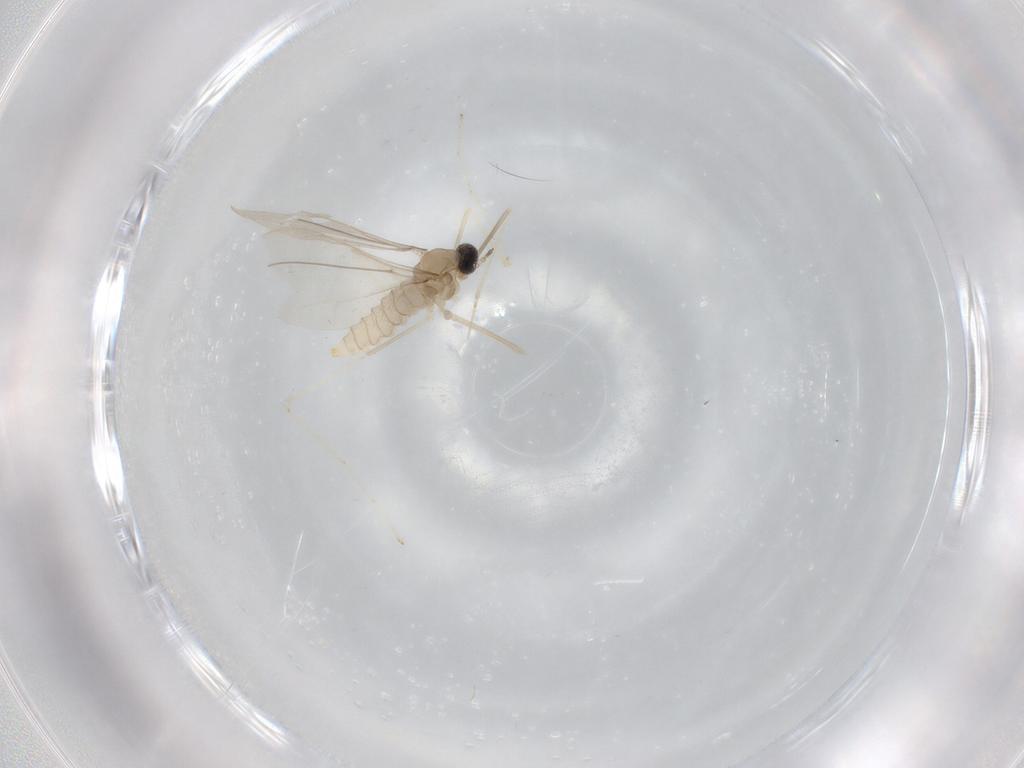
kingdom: Animalia
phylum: Arthropoda
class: Insecta
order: Diptera
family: Cecidomyiidae
